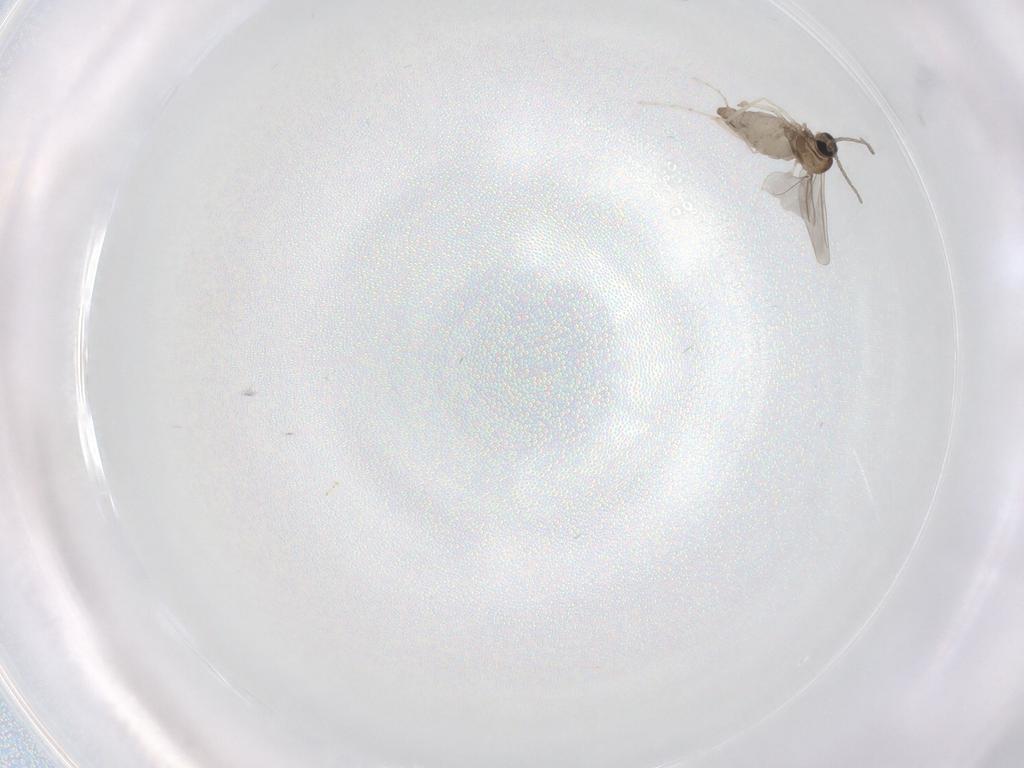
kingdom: Animalia
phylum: Arthropoda
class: Insecta
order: Diptera
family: Cecidomyiidae
